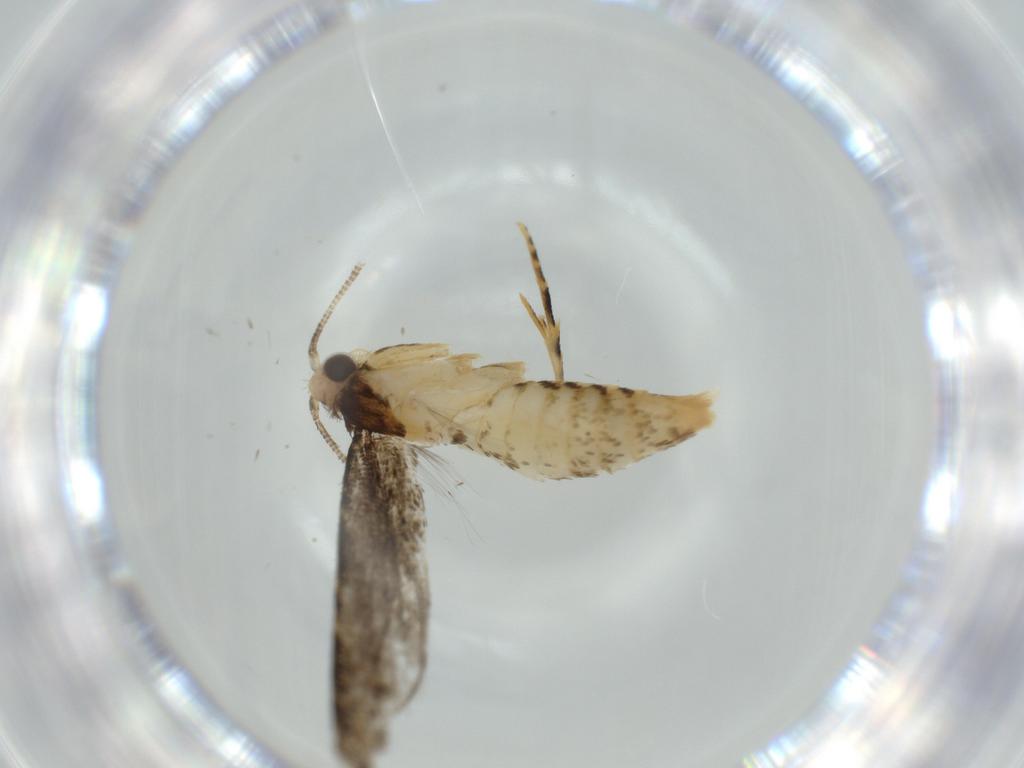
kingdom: Animalia
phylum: Arthropoda
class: Insecta
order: Lepidoptera
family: Tineidae
